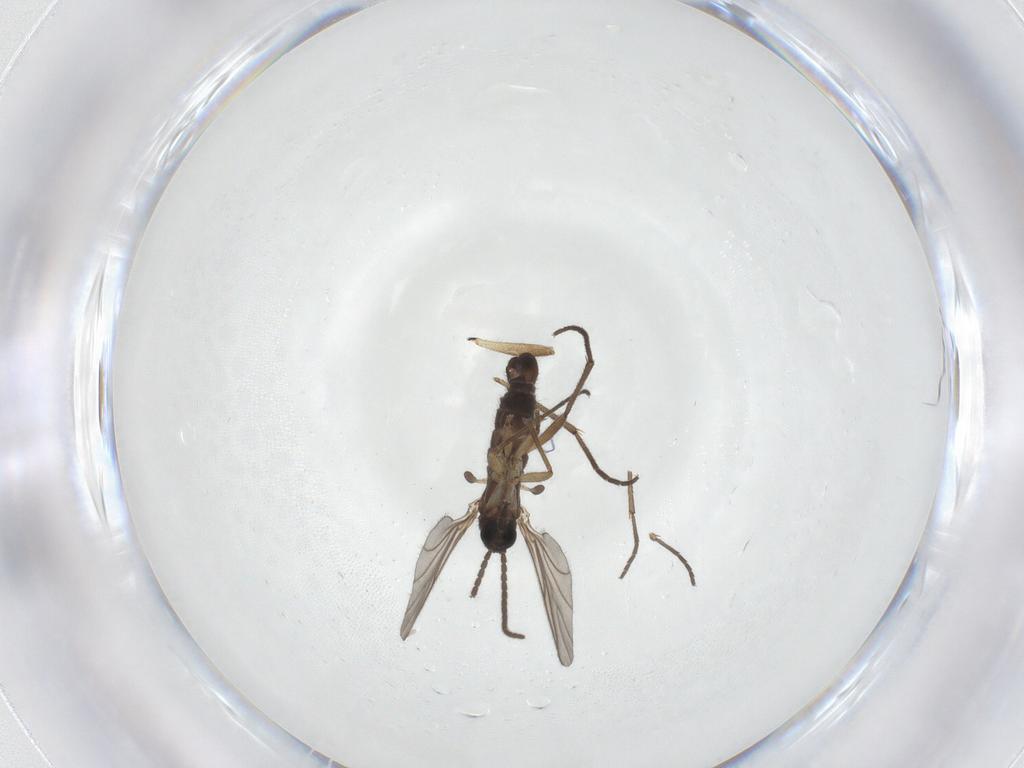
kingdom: Animalia
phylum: Arthropoda
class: Insecta
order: Diptera
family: Sciaridae
